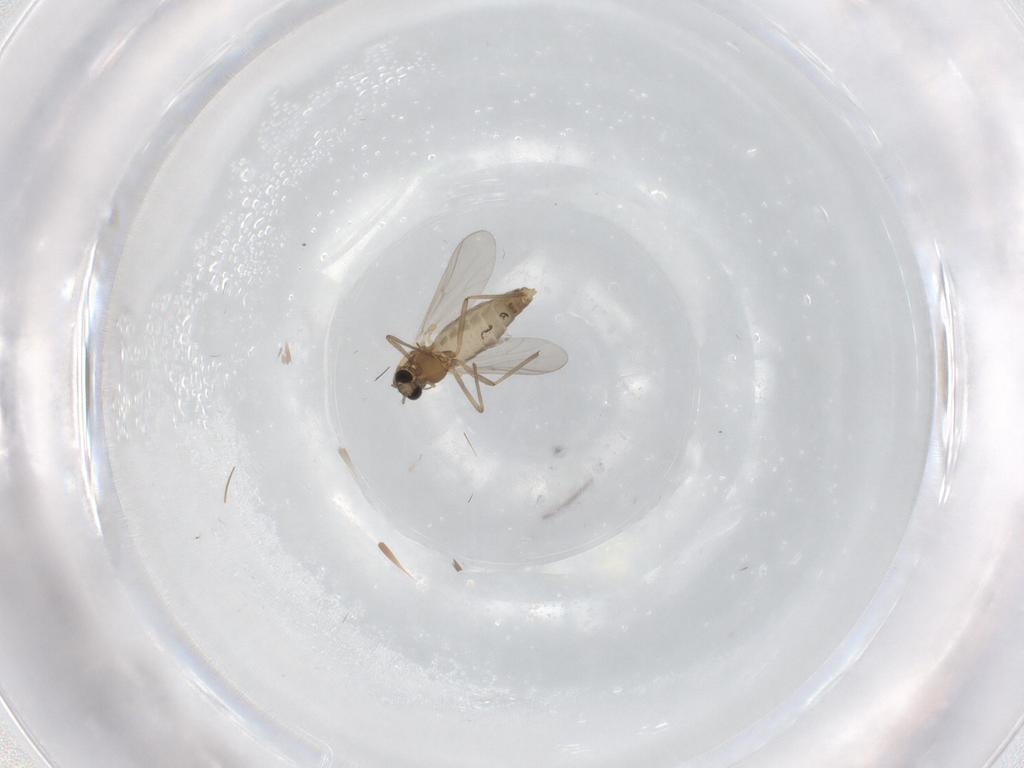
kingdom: Animalia
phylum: Arthropoda
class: Insecta
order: Diptera
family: Chironomidae
